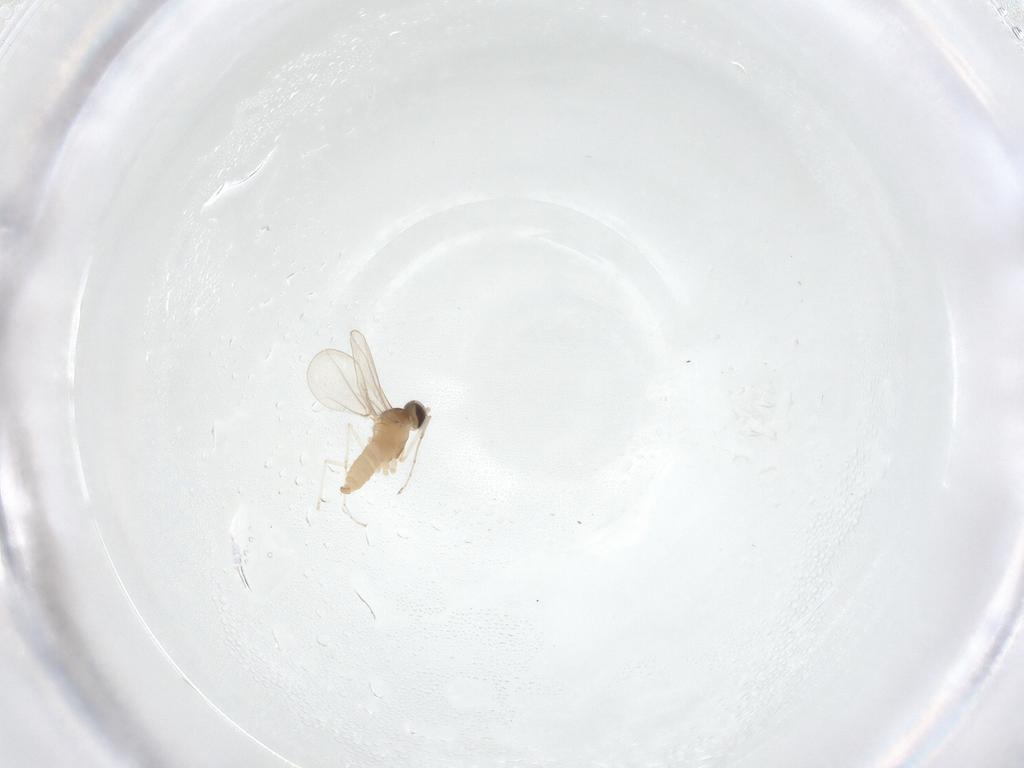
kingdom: Animalia
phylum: Arthropoda
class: Insecta
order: Diptera
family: Cecidomyiidae
